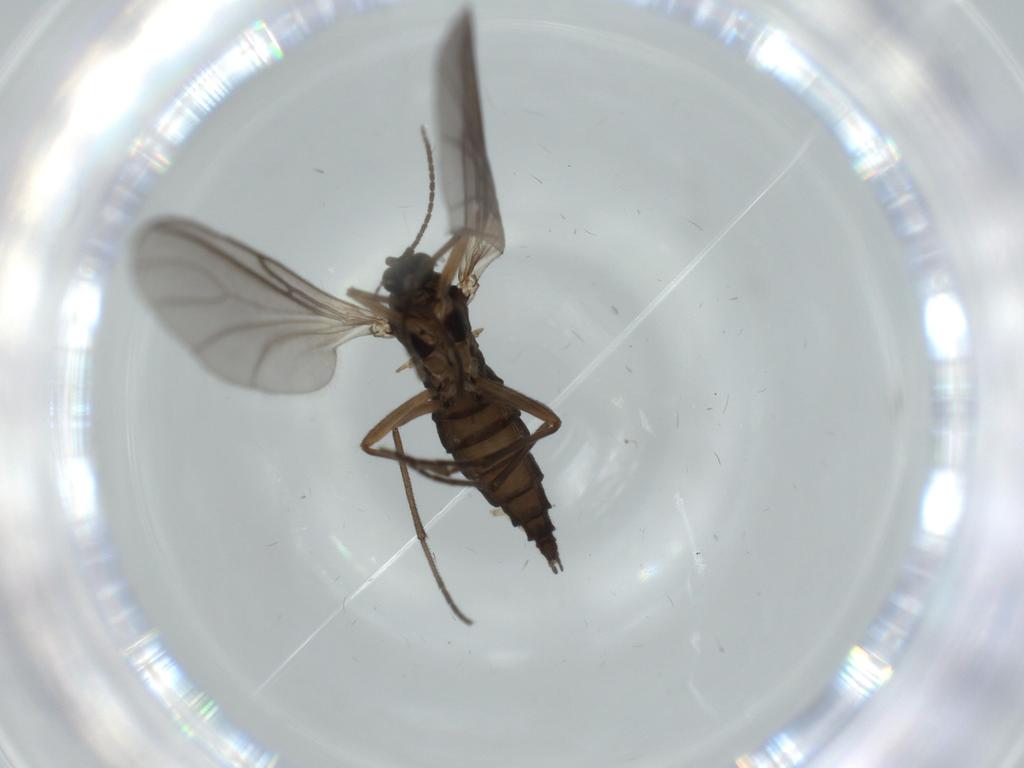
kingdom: Animalia
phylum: Arthropoda
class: Insecta
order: Diptera
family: Sciaridae
